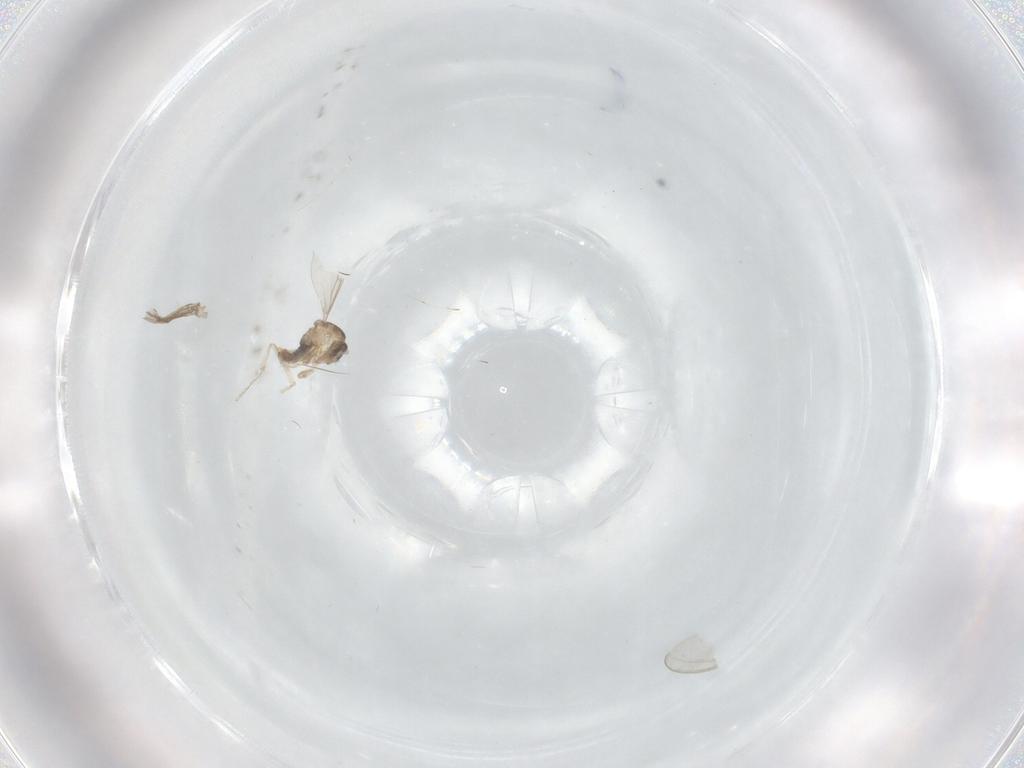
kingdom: Animalia
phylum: Arthropoda
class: Insecta
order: Diptera
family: Cecidomyiidae
